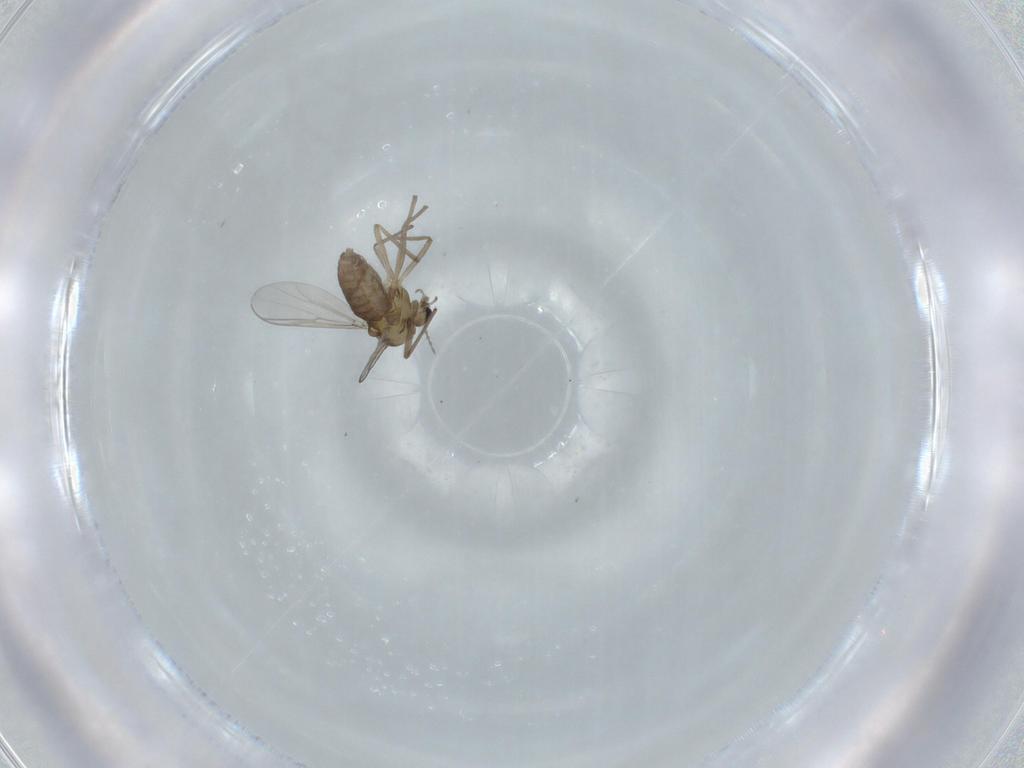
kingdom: Animalia
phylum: Arthropoda
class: Insecta
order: Diptera
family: Chironomidae
